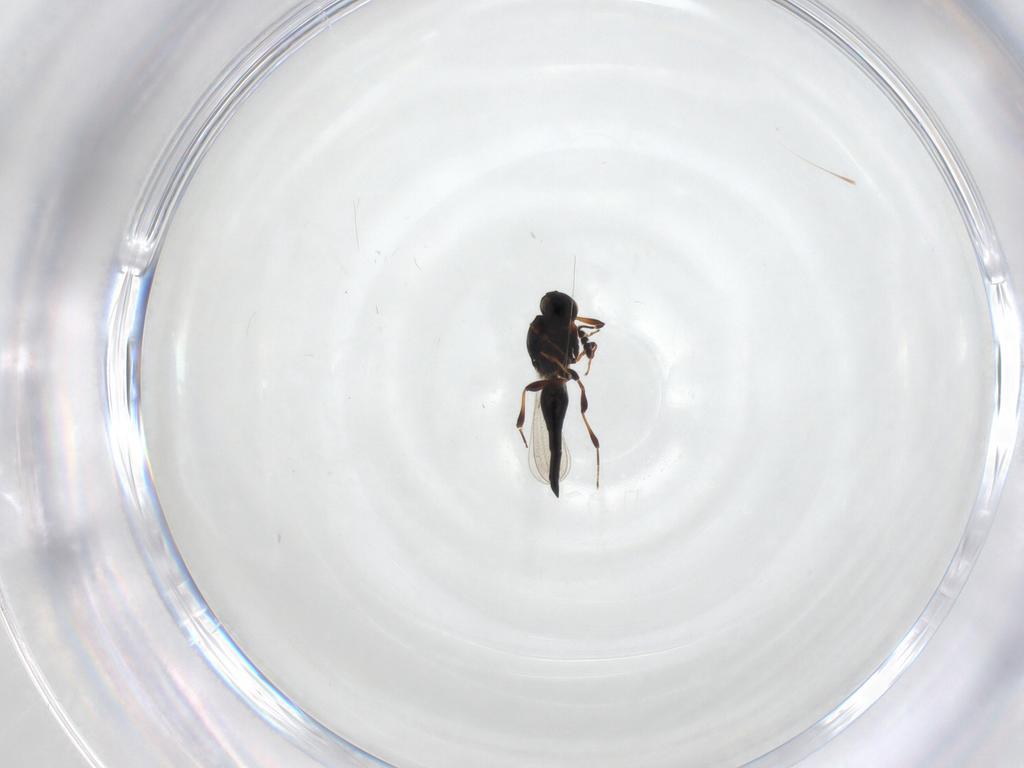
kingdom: Animalia
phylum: Arthropoda
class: Insecta
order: Hymenoptera
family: Platygastridae
